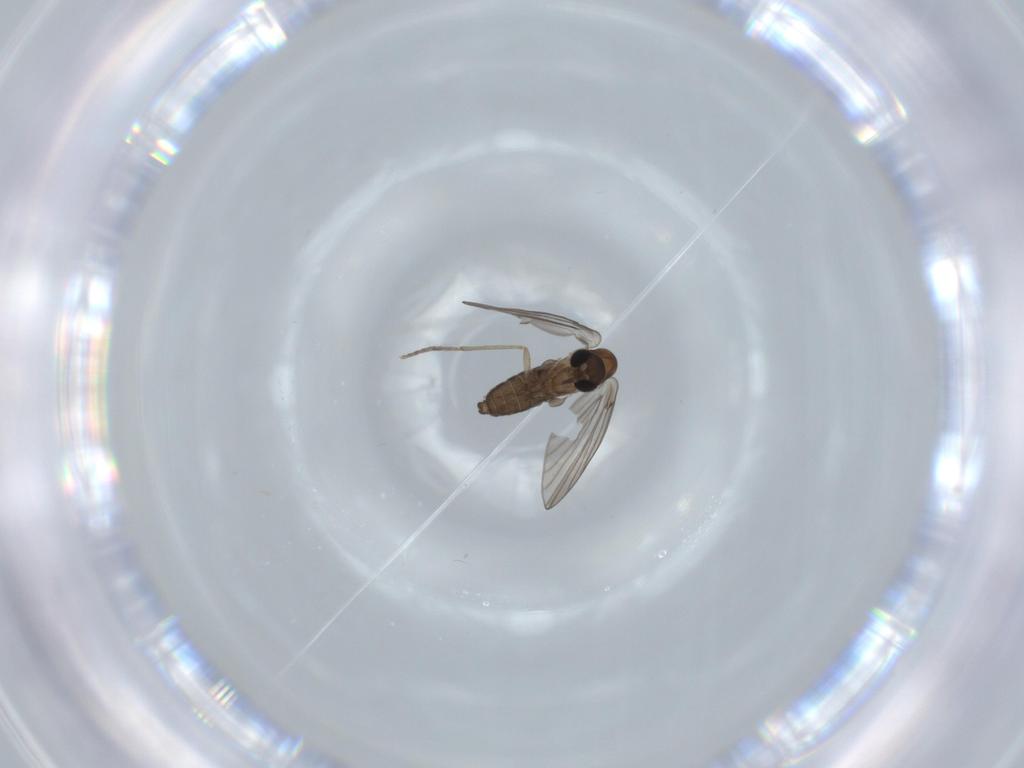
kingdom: Animalia
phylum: Arthropoda
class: Insecta
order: Diptera
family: Psychodidae
